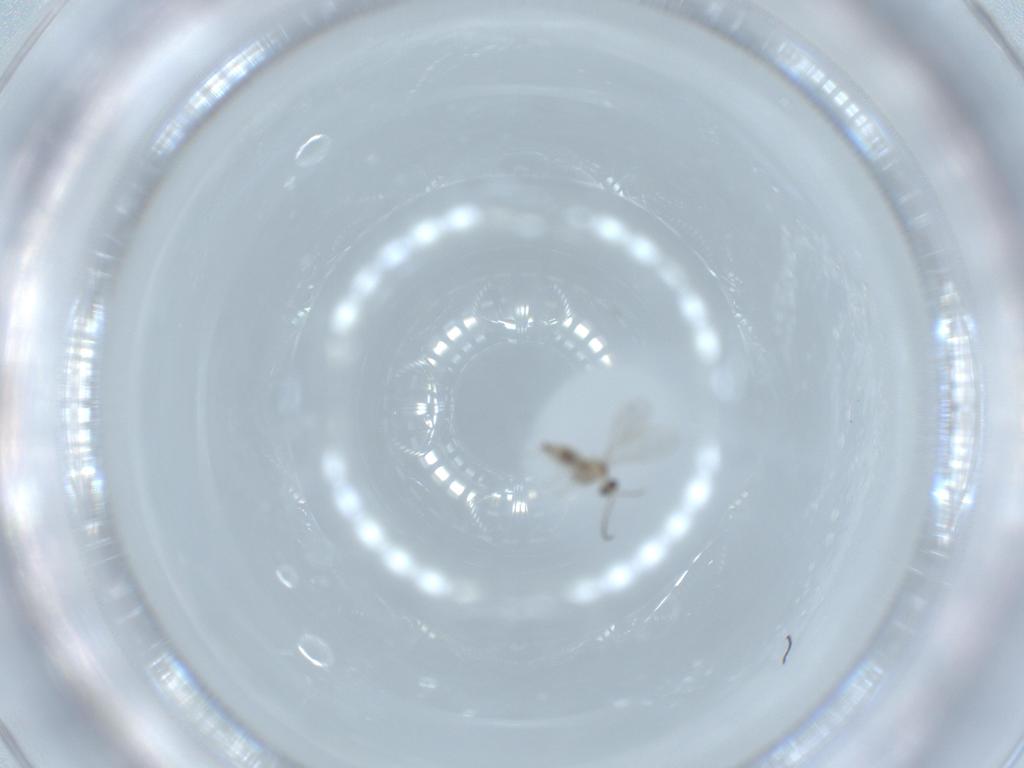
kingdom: Animalia
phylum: Arthropoda
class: Insecta
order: Diptera
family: Cecidomyiidae
